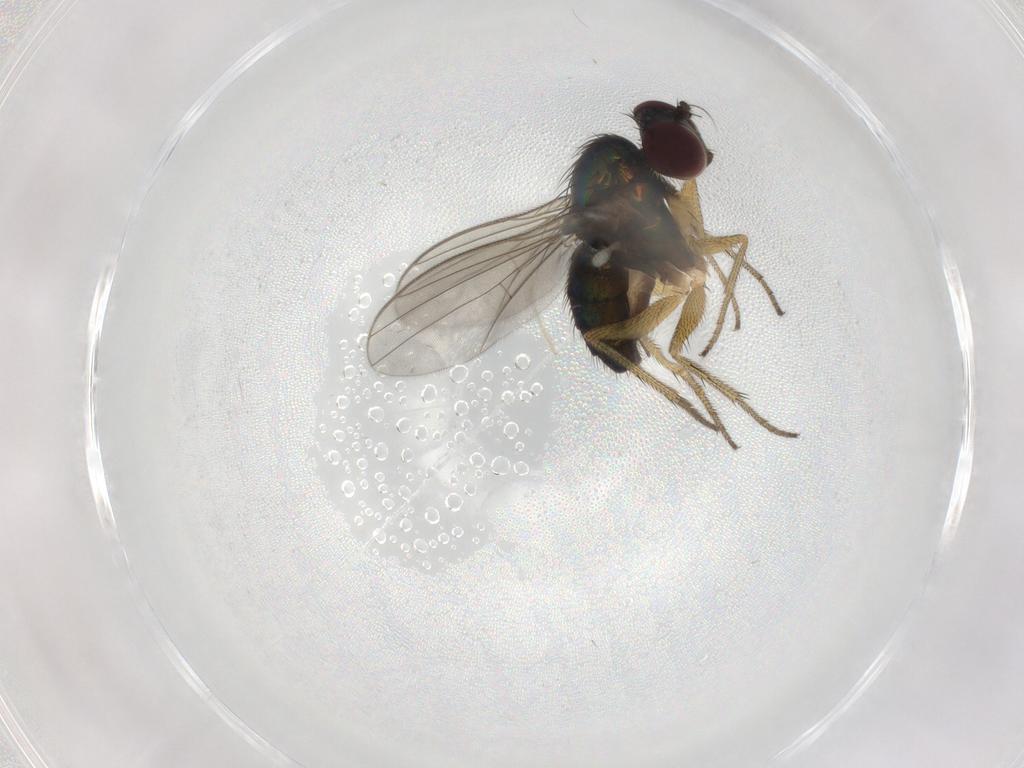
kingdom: Animalia
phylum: Arthropoda
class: Insecta
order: Diptera
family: Dolichopodidae
